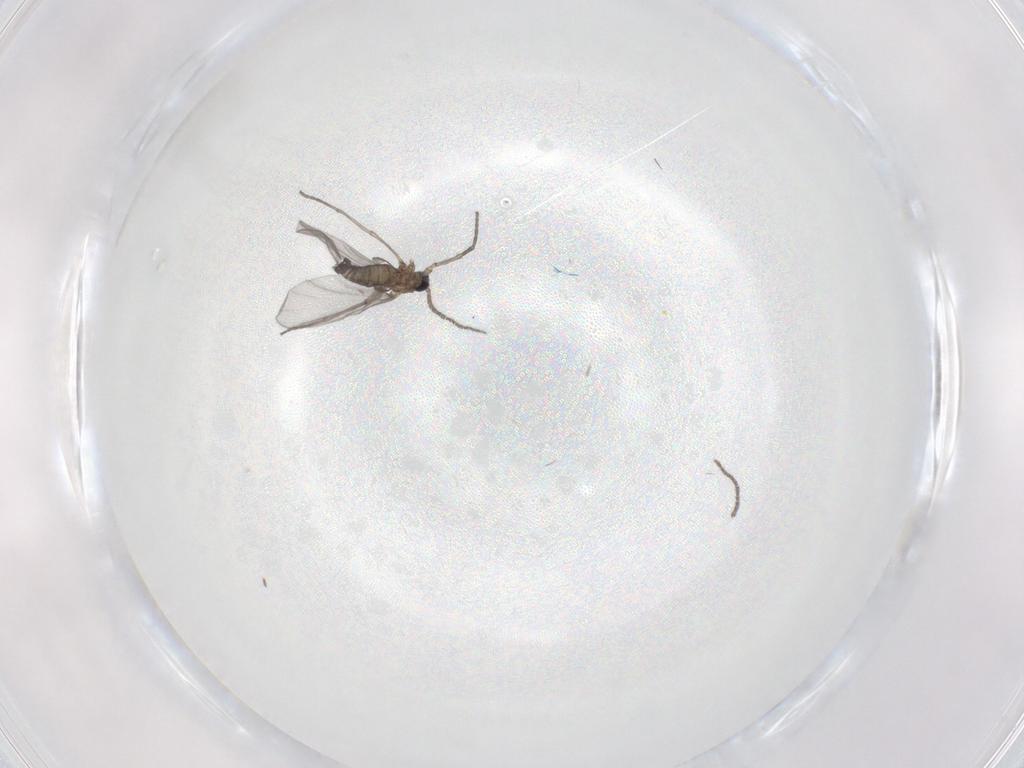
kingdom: Animalia
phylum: Arthropoda
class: Insecta
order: Diptera
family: Sciaridae
